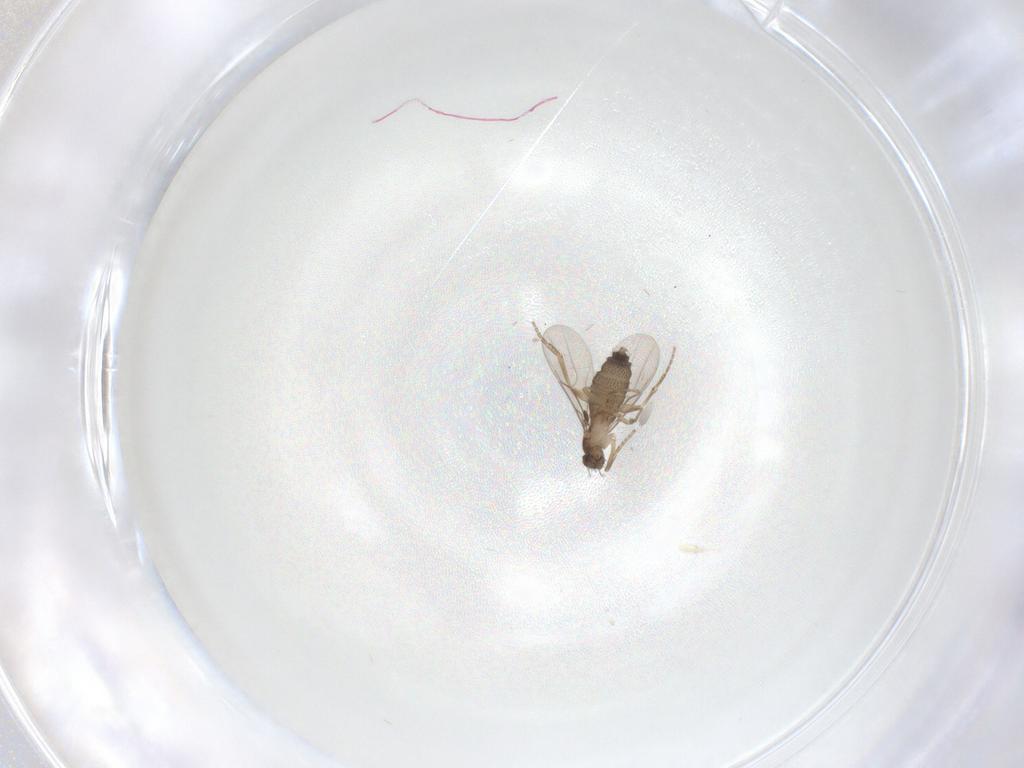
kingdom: Animalia
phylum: Arthropoda
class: Insecta
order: Diptera
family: Phoridae
